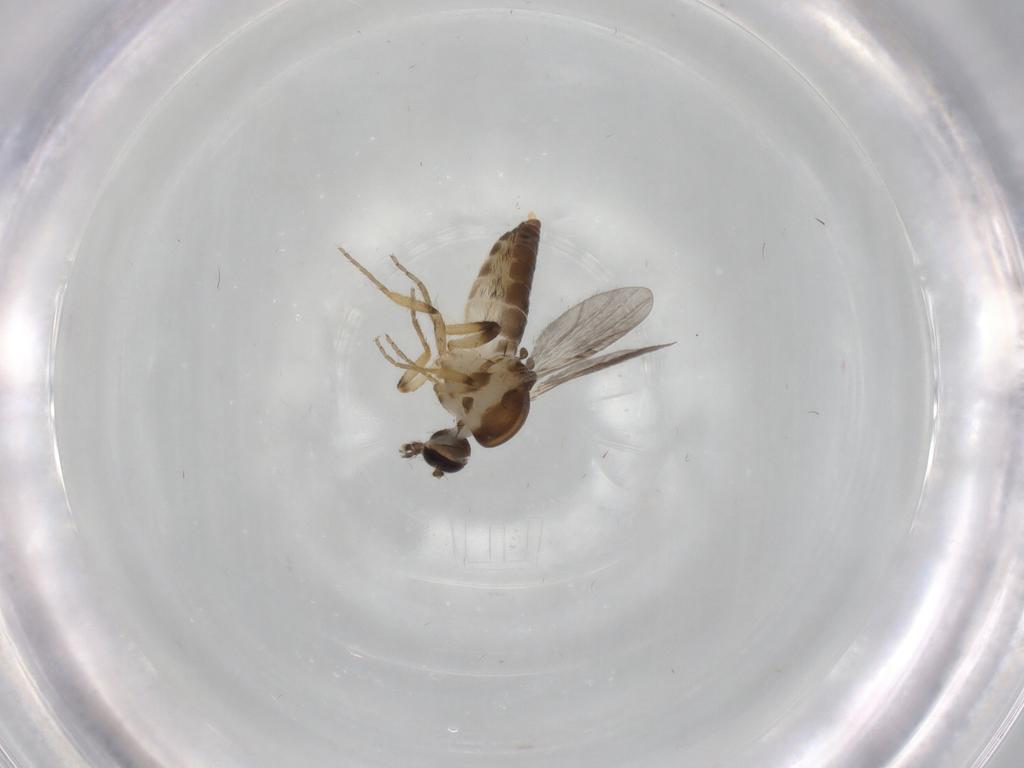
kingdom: Animalia
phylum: Arthropoda
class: Insecta
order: Diptera
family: Ceratopogonidae
